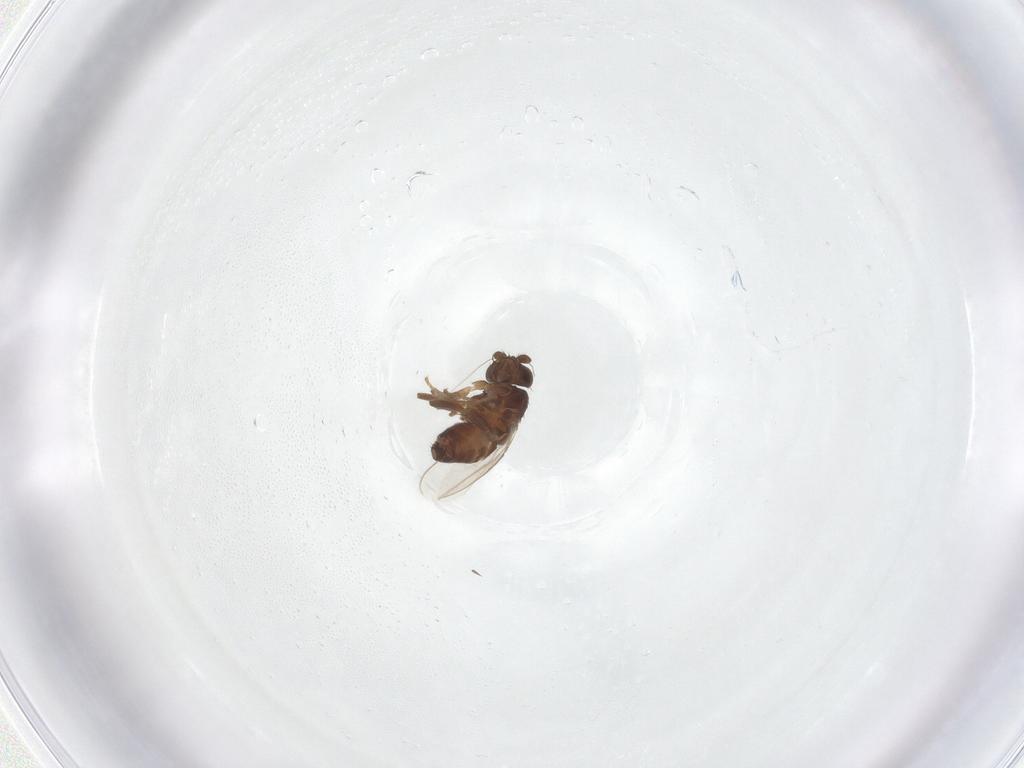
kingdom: Animalia
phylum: Arthropoda
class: Insecta
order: Diptera
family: Sphaeroceridae
